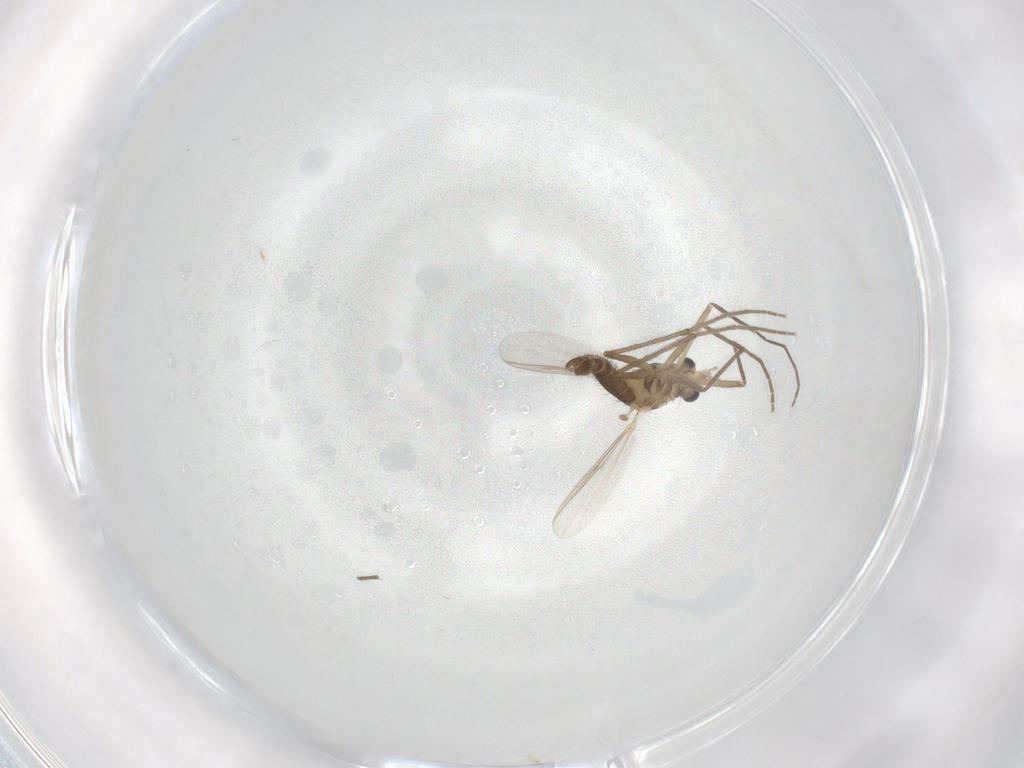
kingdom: Animalia
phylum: Arthropoda
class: Insecta
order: Diptera
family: Chironomidae
